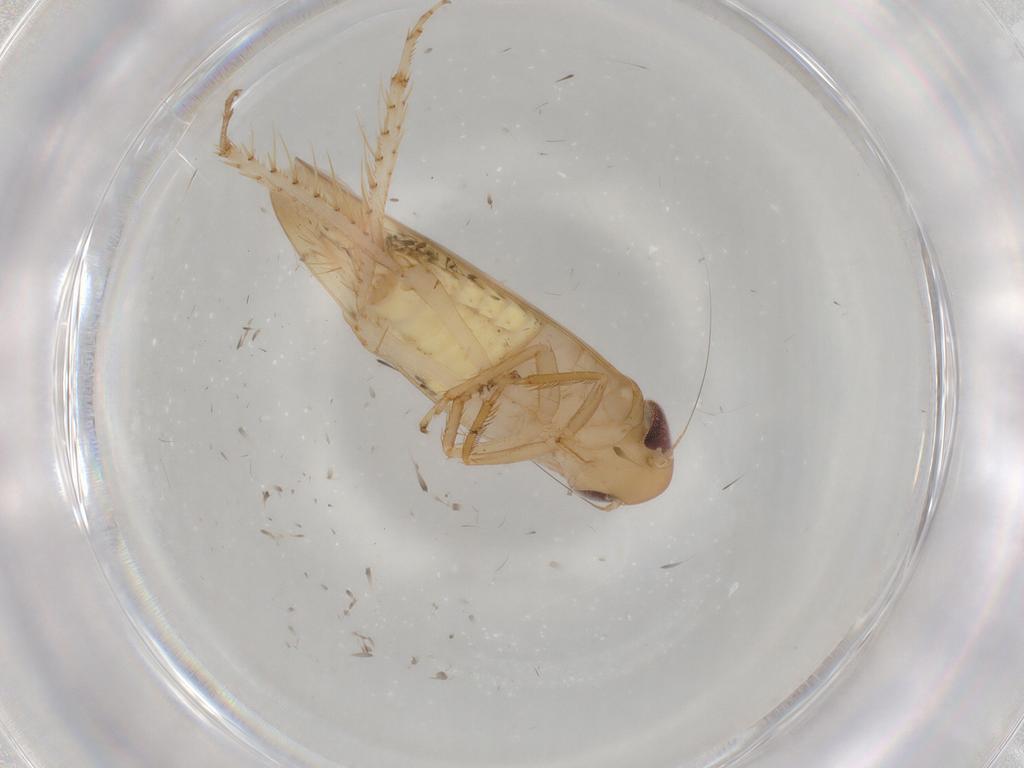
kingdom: Animalia
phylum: Arthropoda
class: Insecta
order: Hemiptera
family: Cicadellidae
